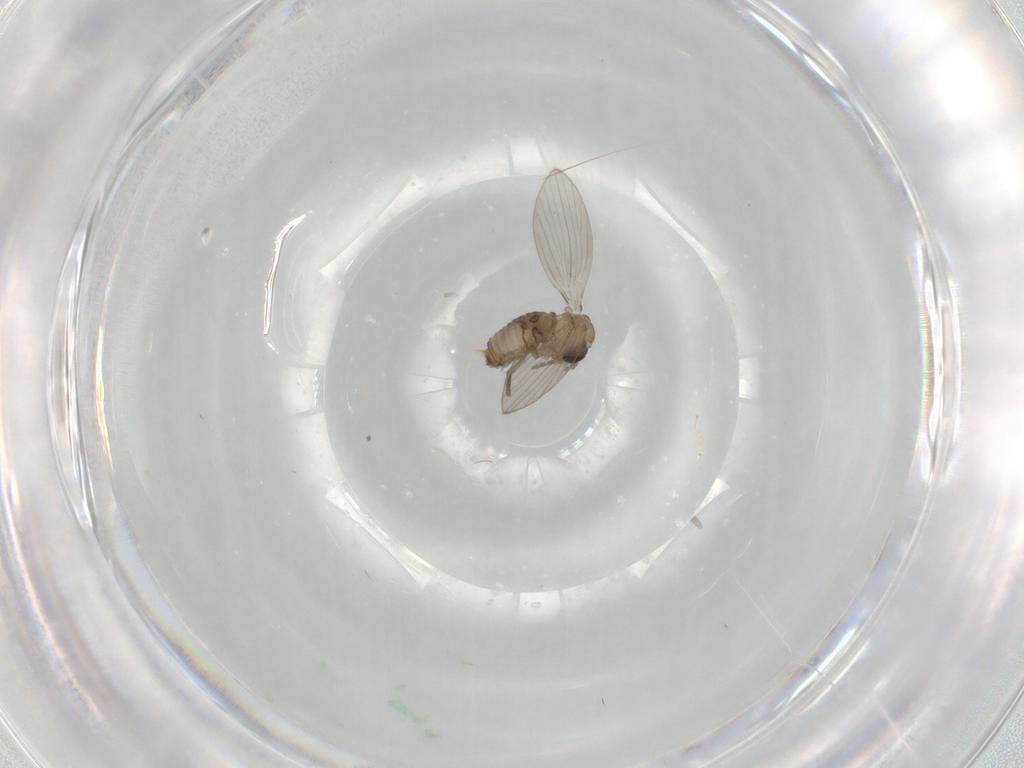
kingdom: Animalia
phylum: Arthropoda
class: Insecta
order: Diptera
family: Psychodidae
